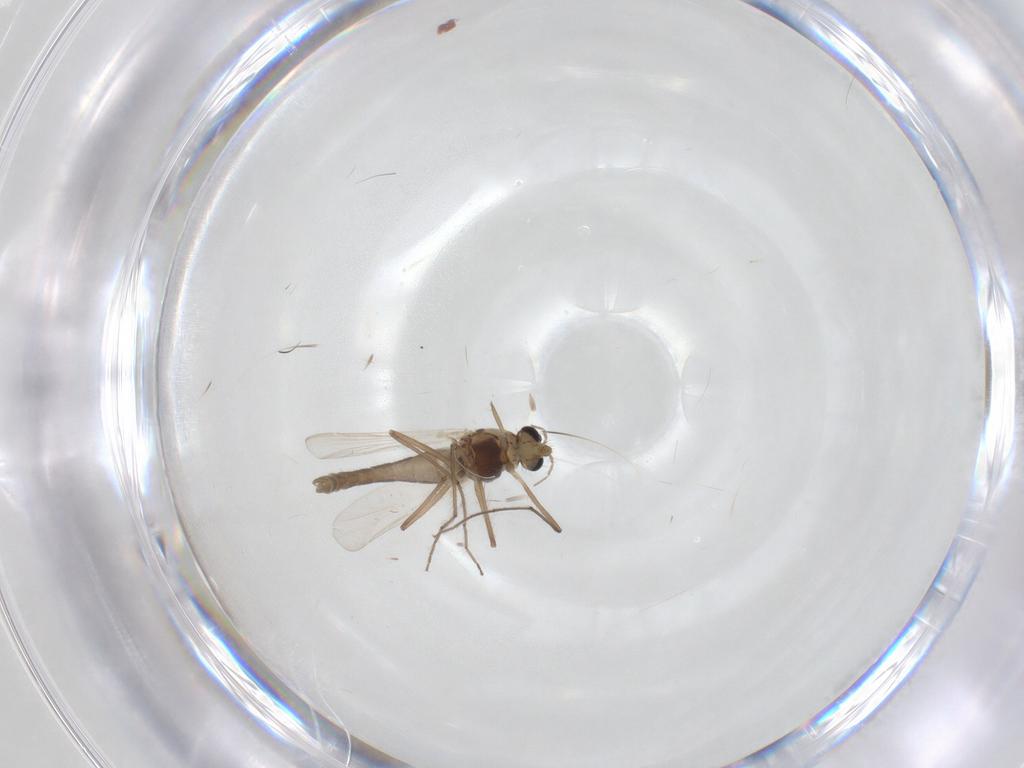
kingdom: Animalia
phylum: Arthropoda
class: Insecta
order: Diptera
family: Chironomidae
